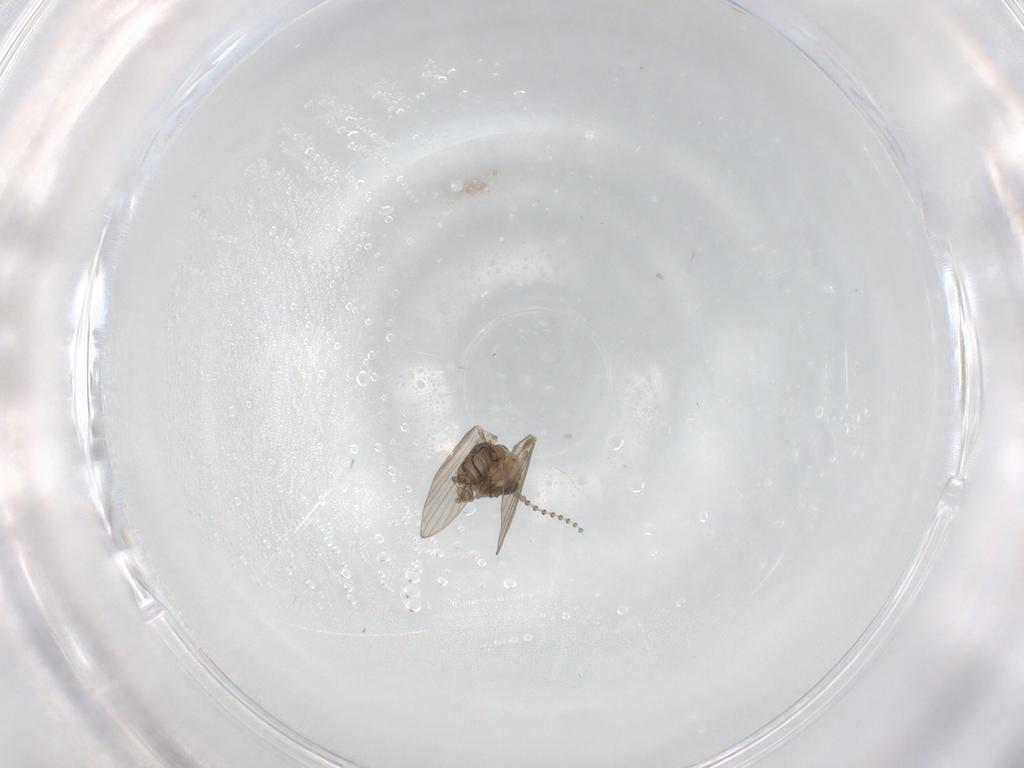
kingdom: Animalia
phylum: Arthropoda
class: Insecta
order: Diptera
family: Psychodidae
